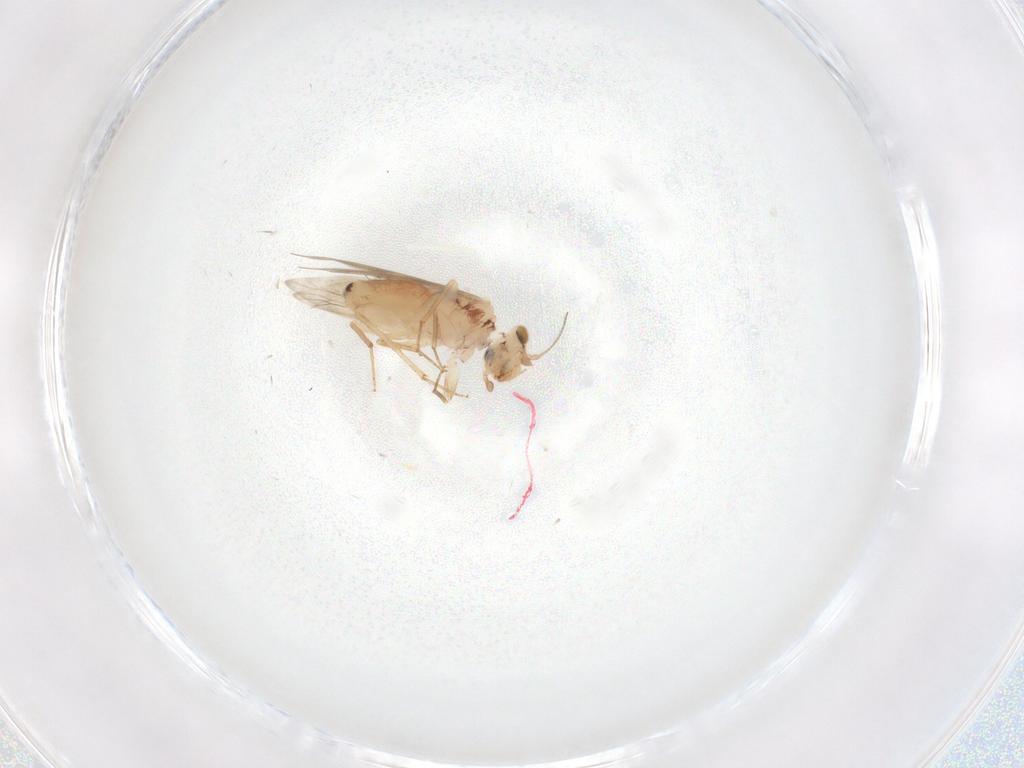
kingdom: Animalia
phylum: Arthropoda
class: Insecta
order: Psocodea
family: Lepidopsocidae
